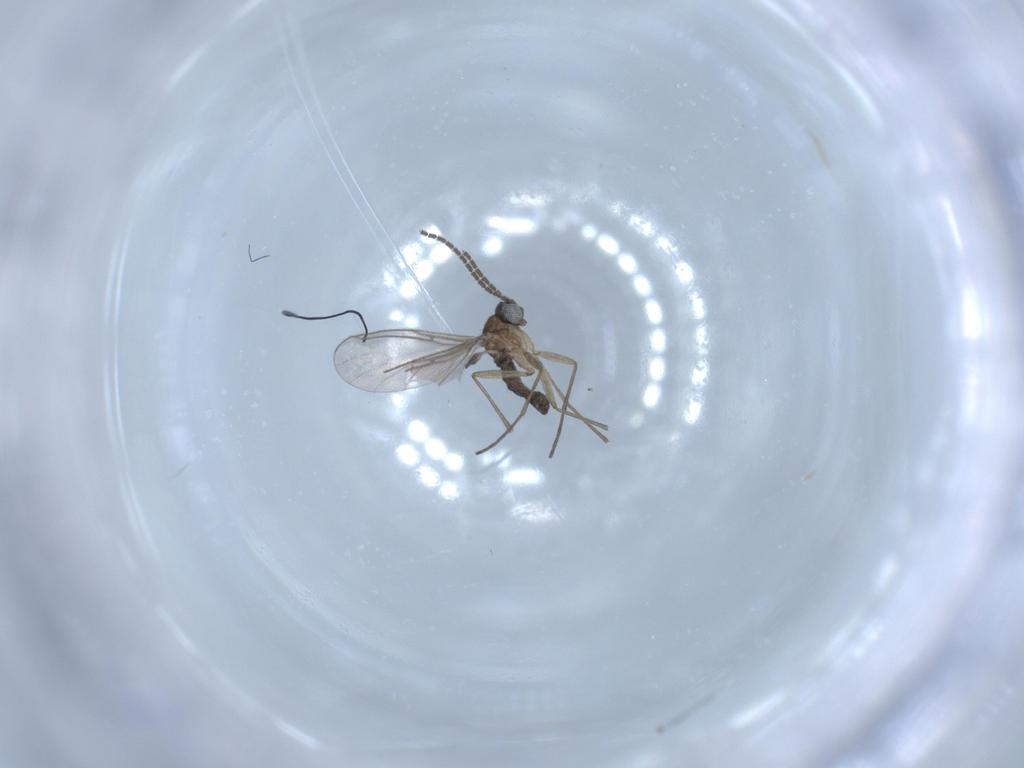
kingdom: Animalia
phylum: Arthropoda
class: Insecta
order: Diptera
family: Sciaridae
